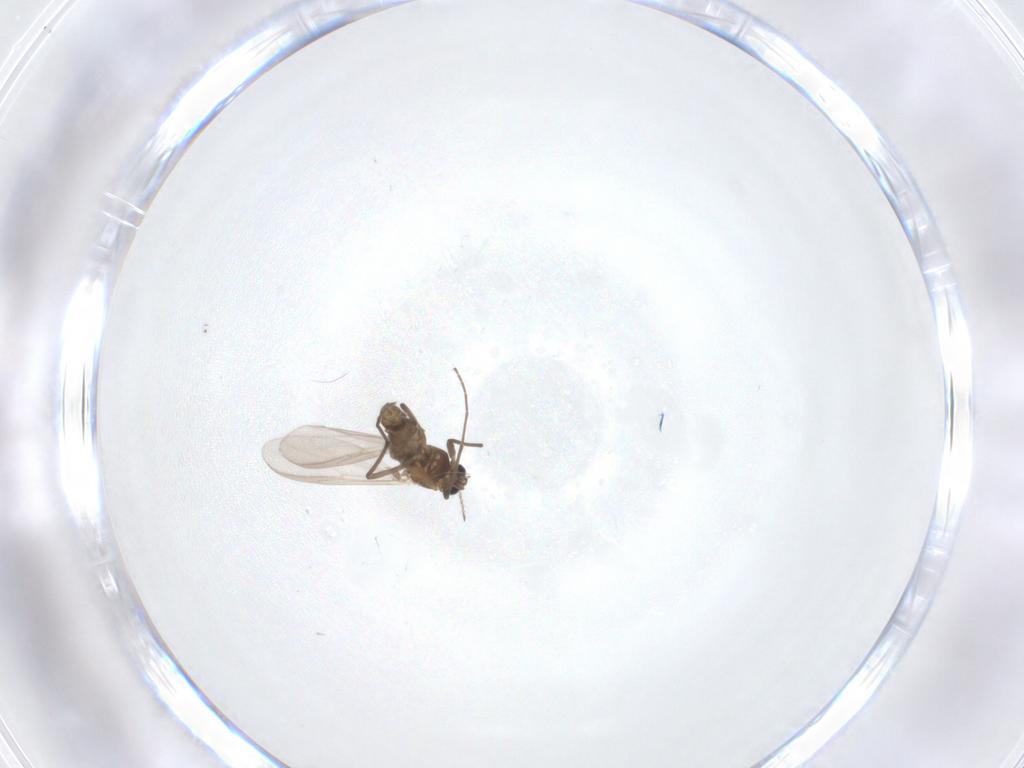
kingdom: Animalia
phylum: Arthropoda
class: Insecta
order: Diptera
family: Chironomidae
